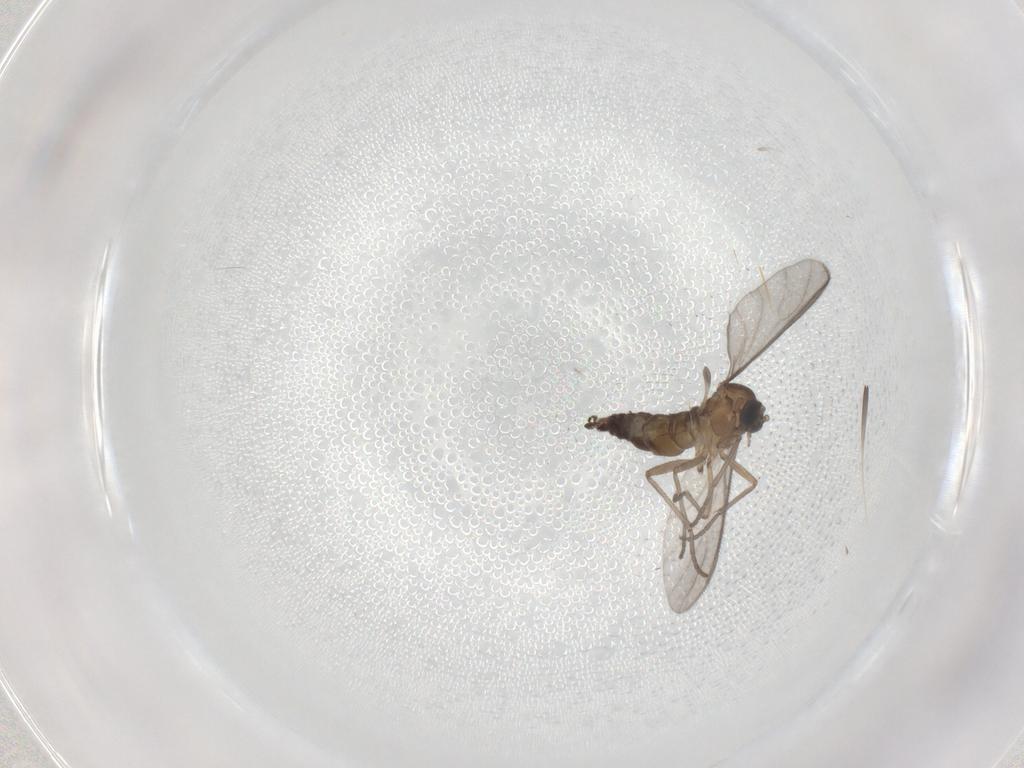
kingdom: Animalia
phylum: Arthropoda
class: Insecta
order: Diptera
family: Sciaridae
